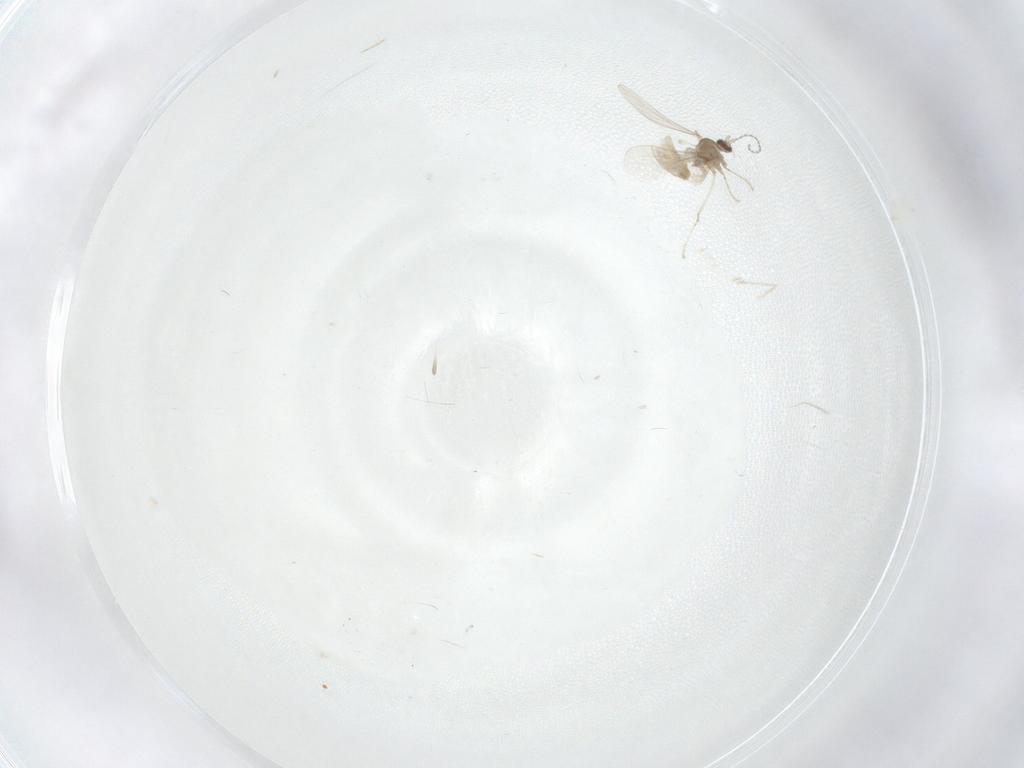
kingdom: Animalia
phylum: Arthropoda
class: Insecta
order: Diptera
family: Cecidomyiidae
